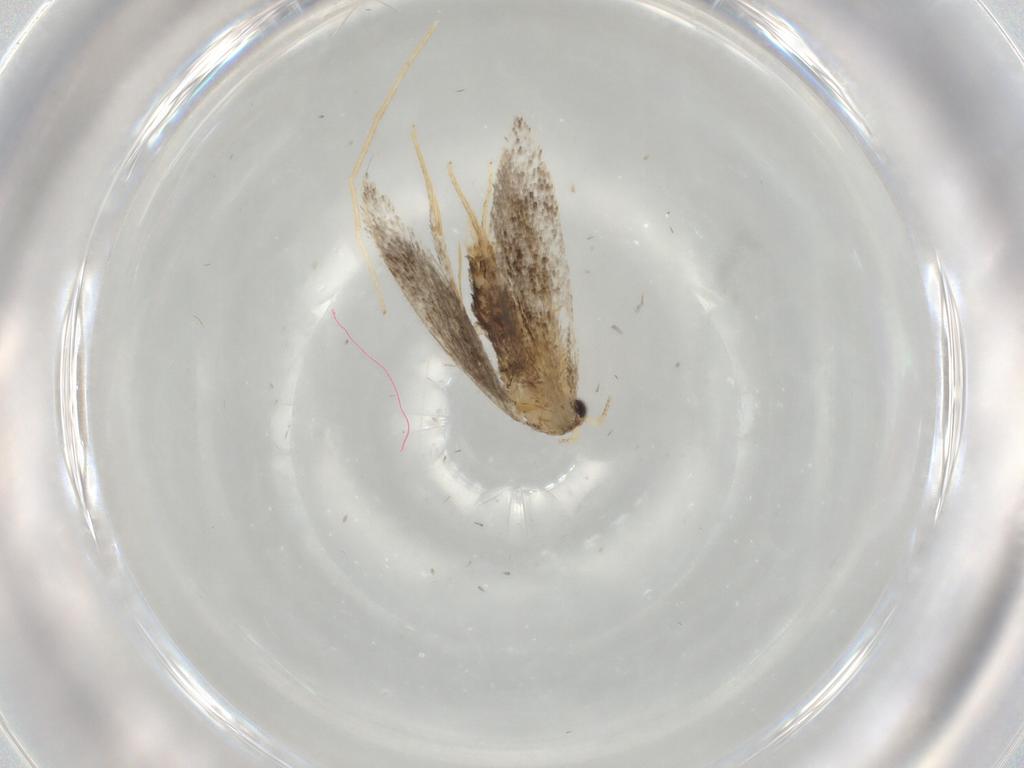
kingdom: Animalia
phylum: Arthropoda
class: Insecta
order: Lepidoptera
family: Nepticulidae
